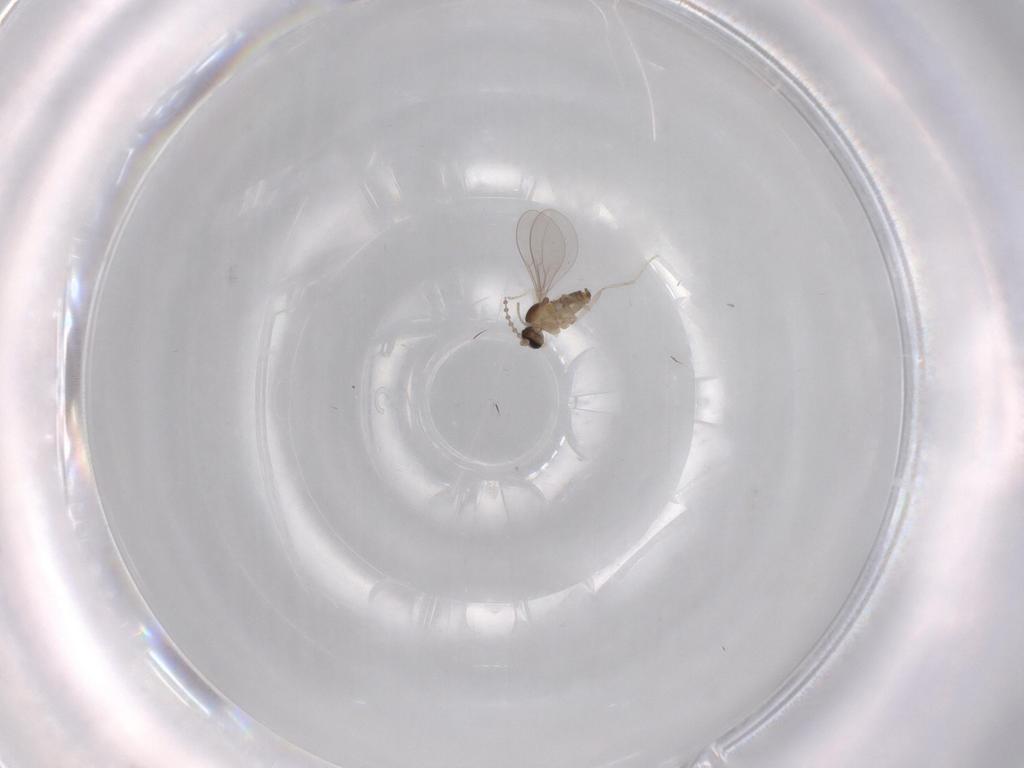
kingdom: Animalia
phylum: Arthropoda
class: Insecta
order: Diptera
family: Cecidomyiidae
